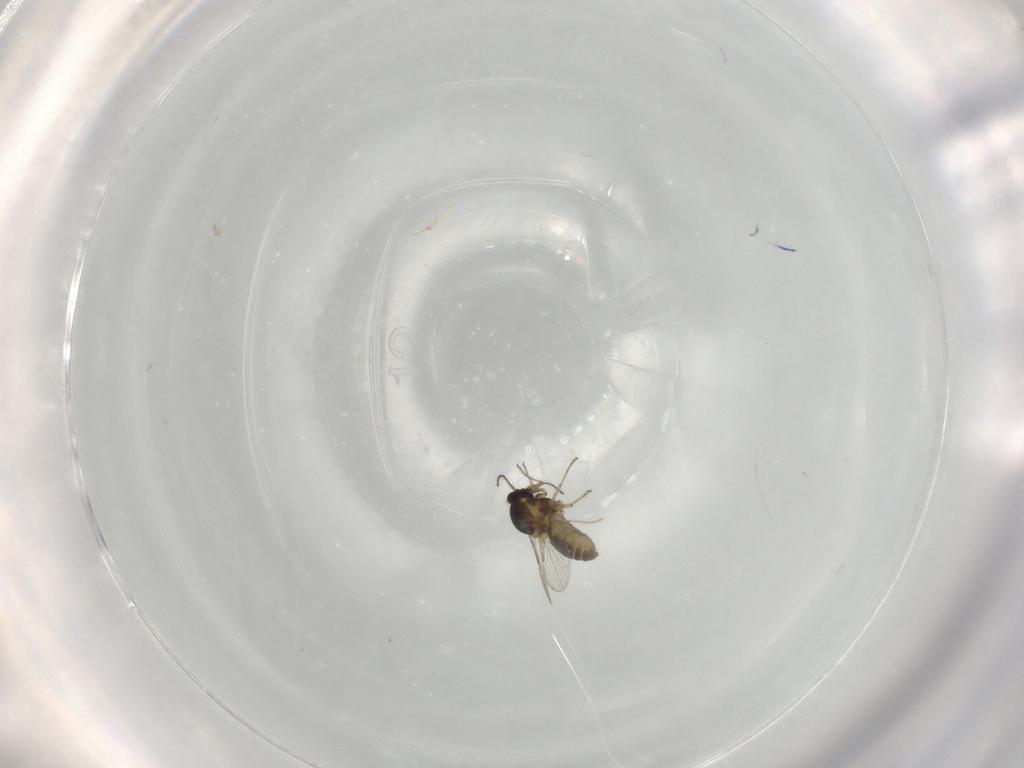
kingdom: Animalia
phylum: Arthropoda
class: Insecta
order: Diptera
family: Ceratopogonidae
